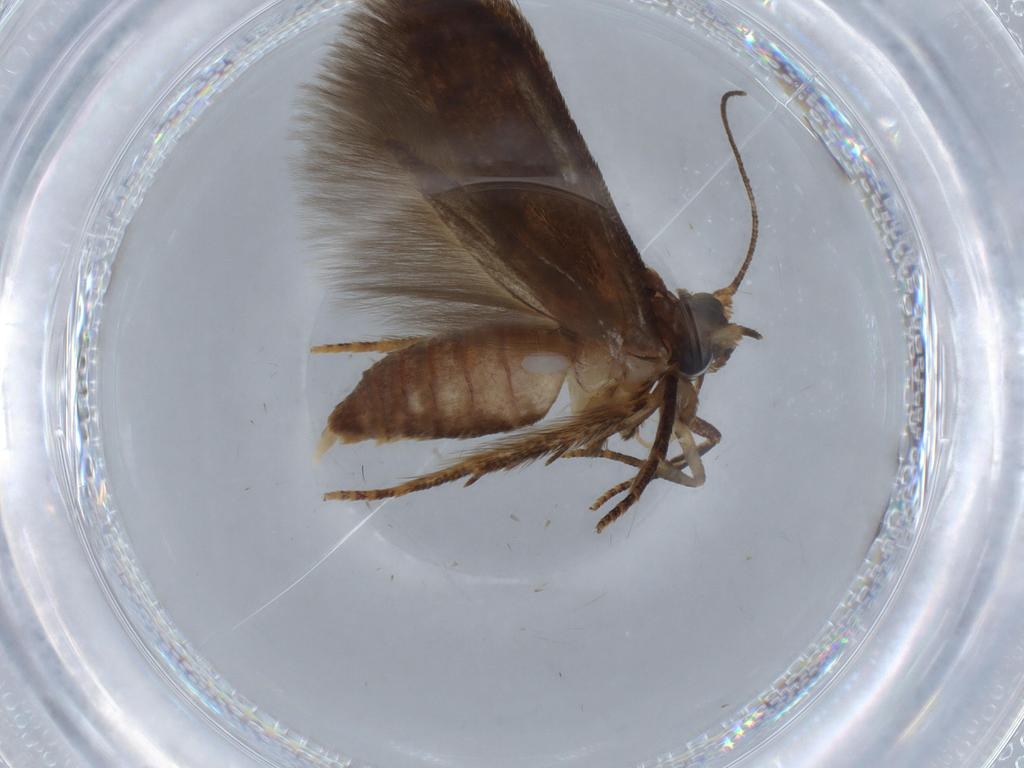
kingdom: Animalia
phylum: Arthropoda
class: Insecta
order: Lepidoptera
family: Blastobasidae
